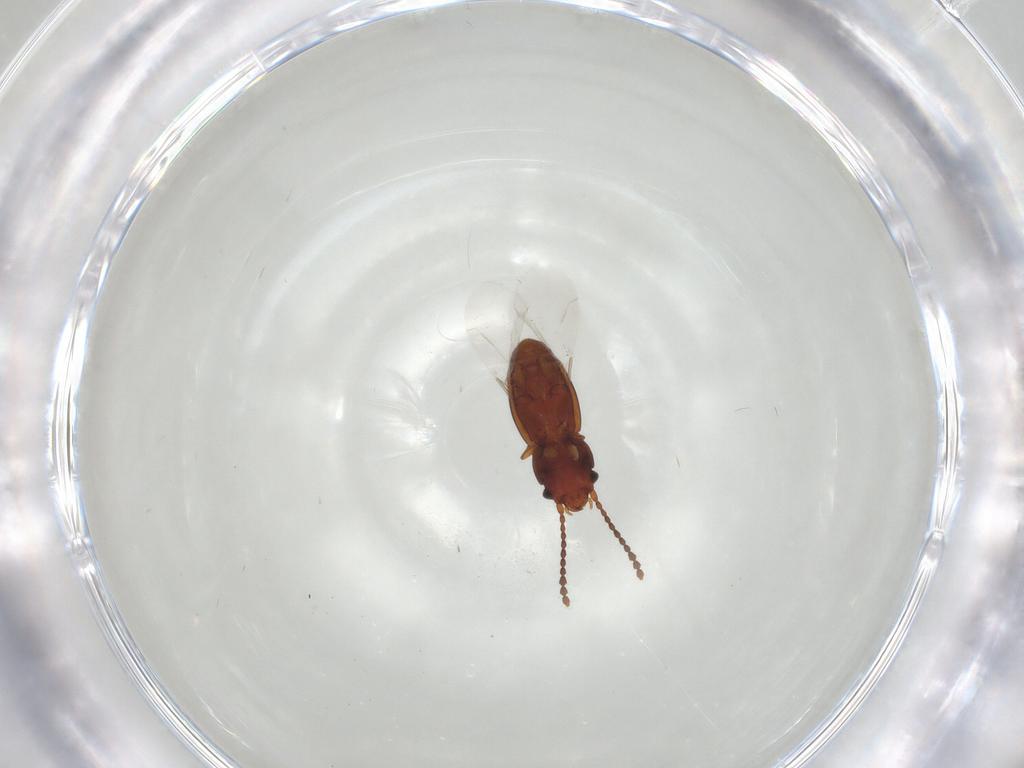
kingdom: Animalia
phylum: Arthropoda
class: Insecta
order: Coleoptera
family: Laemophloeidae
